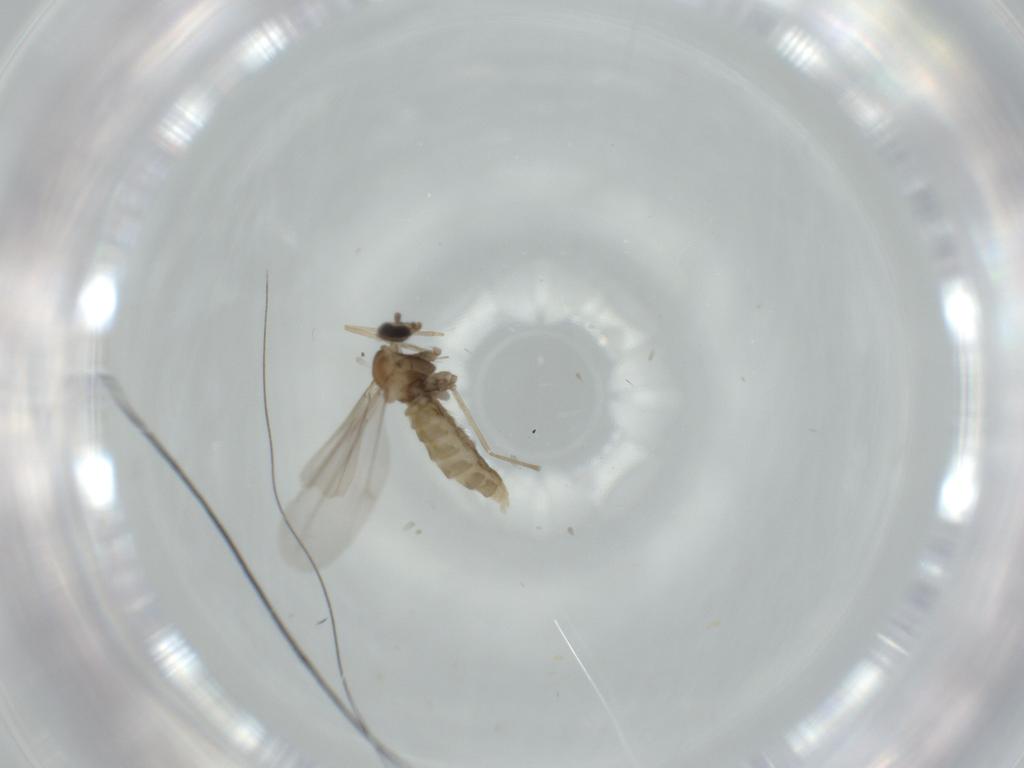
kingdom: Animalia
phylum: Arthropoda
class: Insecta
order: Diptera
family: Cecidomyiidae
